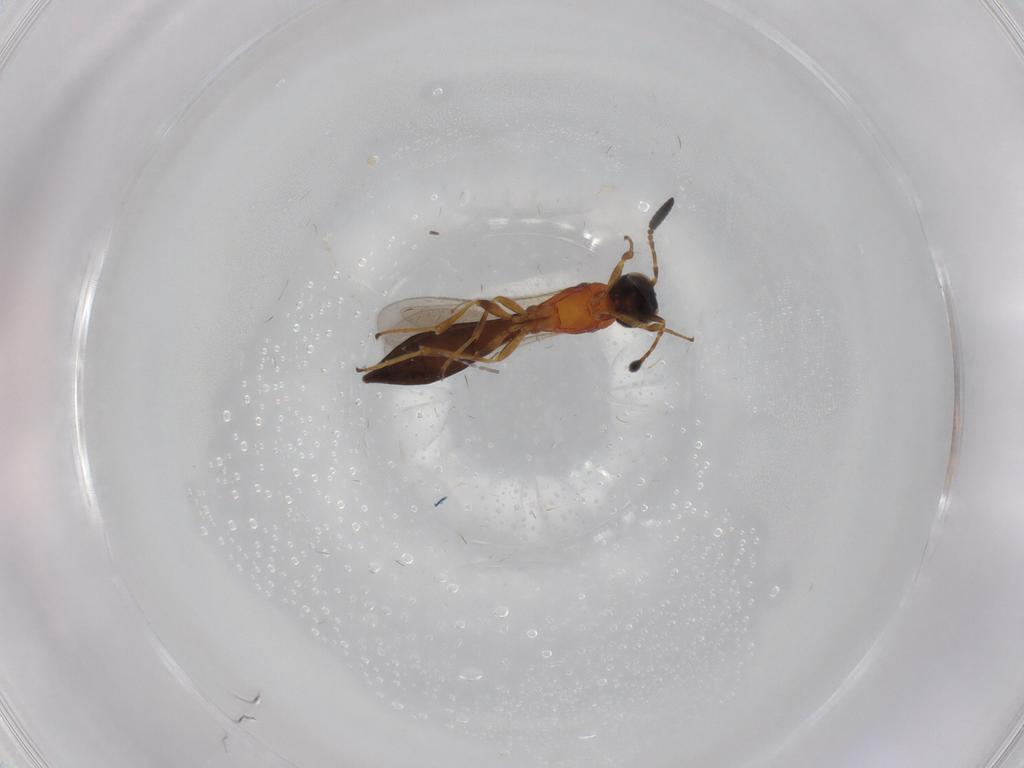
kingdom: Animalia
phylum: Arthropoda
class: Insecta
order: Hymenoptera
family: Scelionidae
